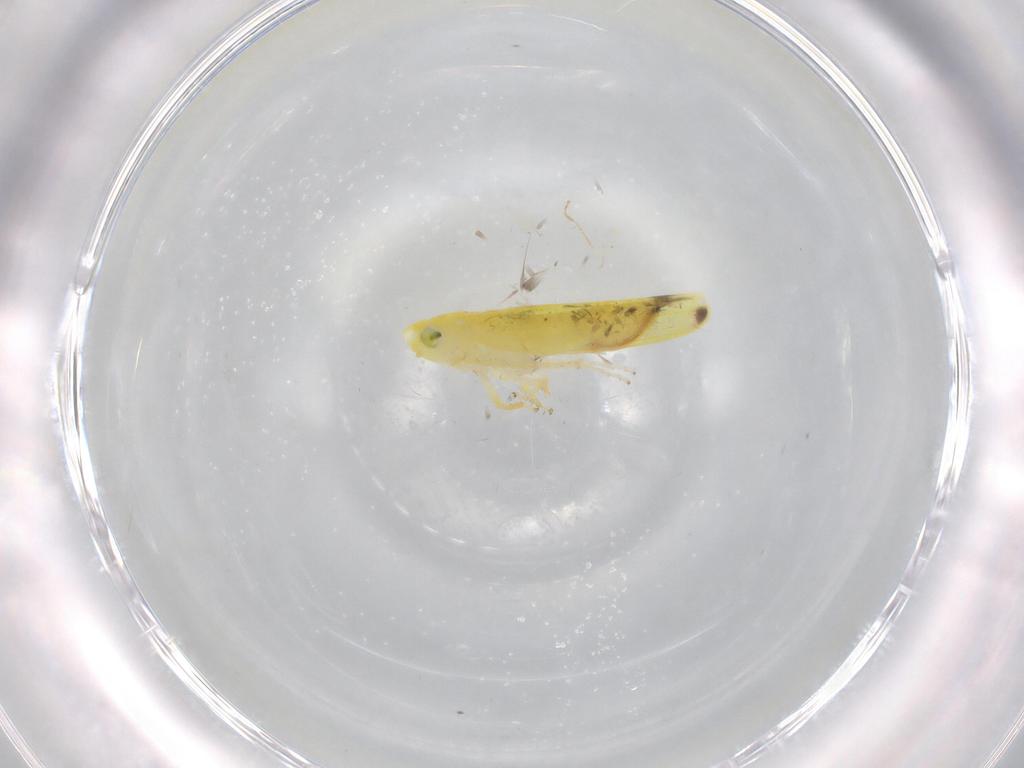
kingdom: Animalia
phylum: Arthropoda
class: Insecta
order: Hemiptera
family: Aleyrodidae
